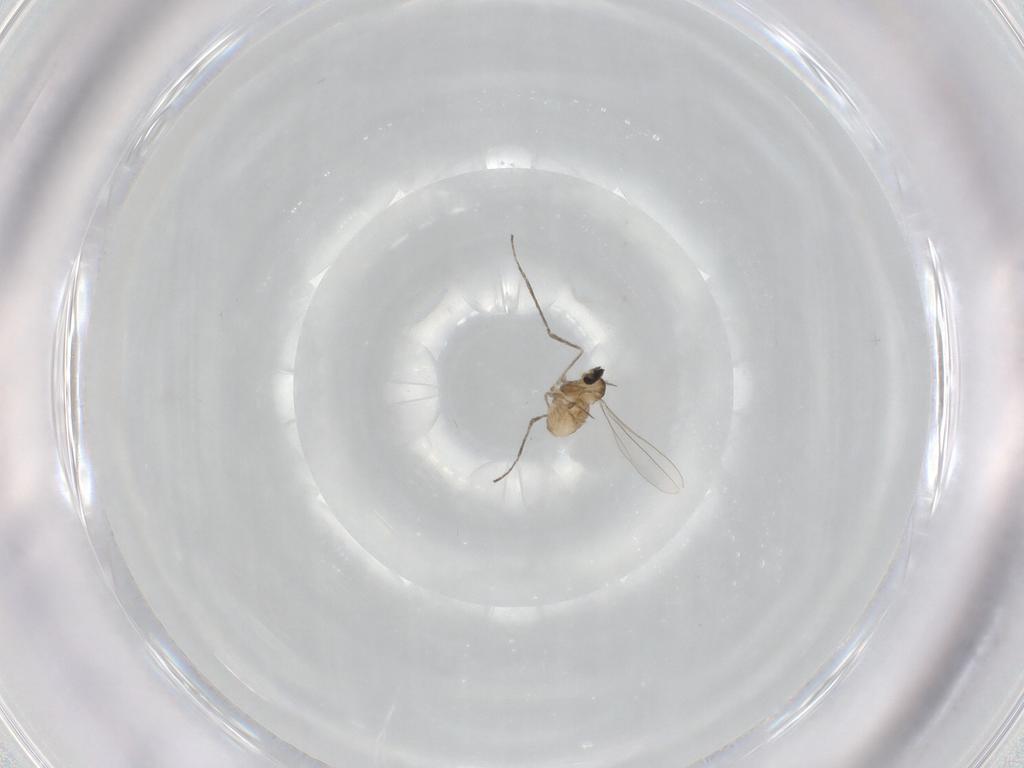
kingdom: Animalia
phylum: Arthropoda
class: Insecta
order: Diptera
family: Cecidomyiidae
